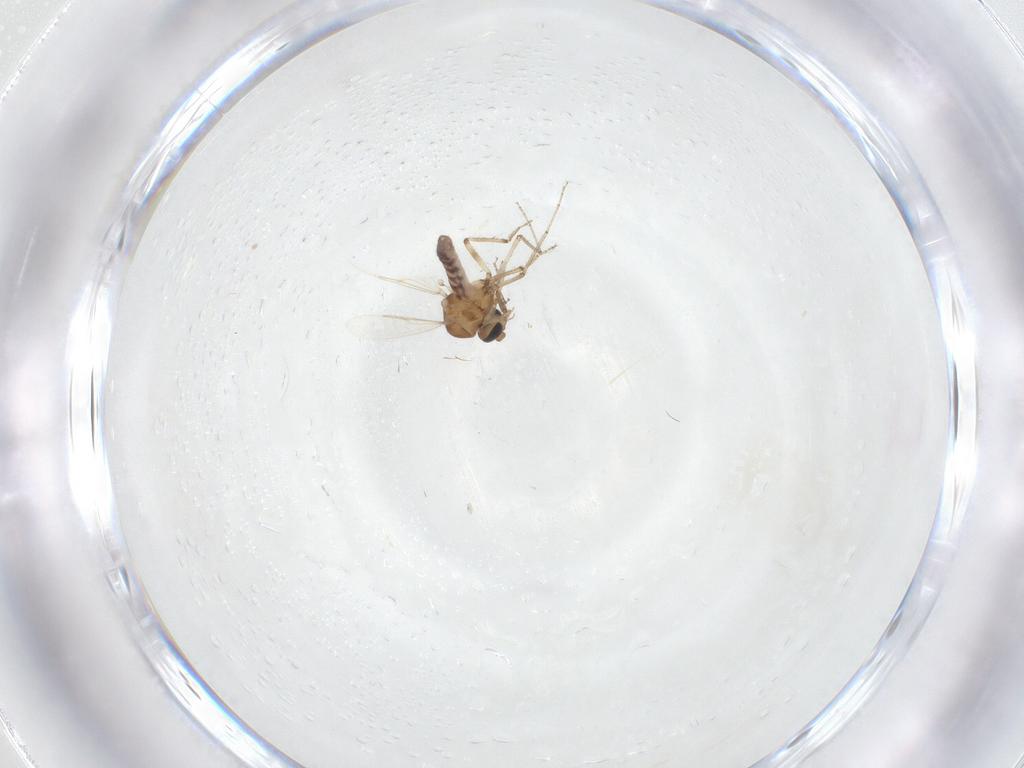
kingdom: Animalia
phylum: Arthropoda
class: Insecta
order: Diptera
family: Ceratopogonidae
